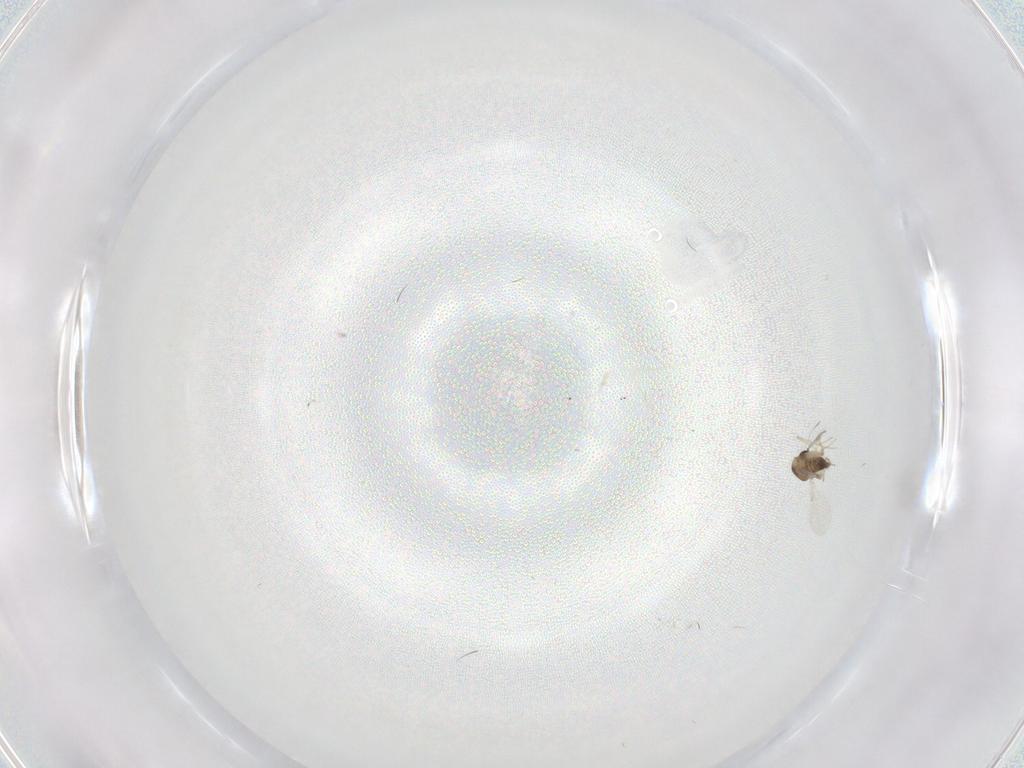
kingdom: Animalia
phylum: Arthropoda
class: Insecta
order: Diptera
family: Ceratopogonidae
